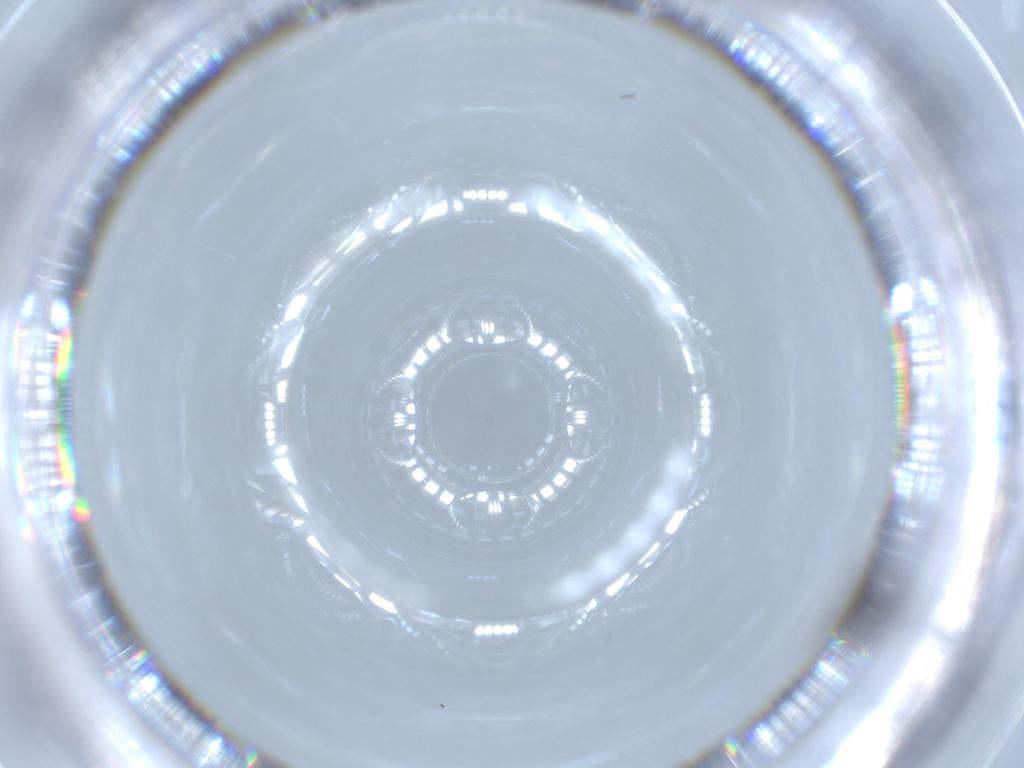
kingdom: Animalia
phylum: Arthropoda
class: Insecta
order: Thysanoptera
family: Phlaeothripidae
